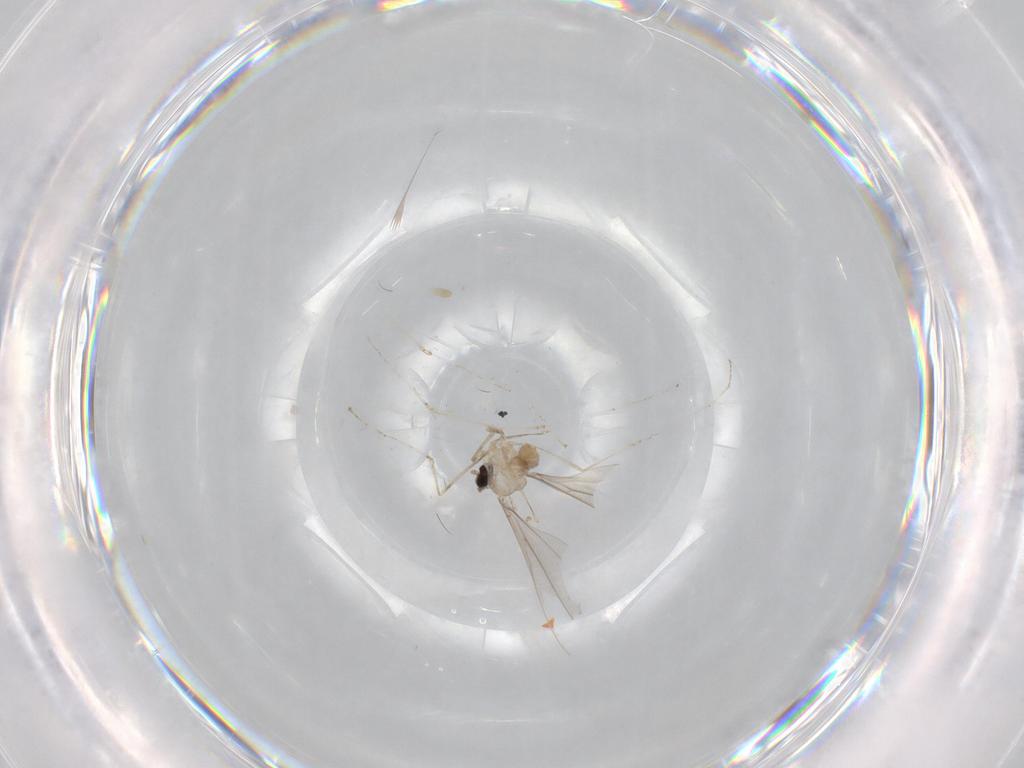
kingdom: Animalia
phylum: Arthropoda
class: Insecta
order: Diptera
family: Cecidomyiidae
